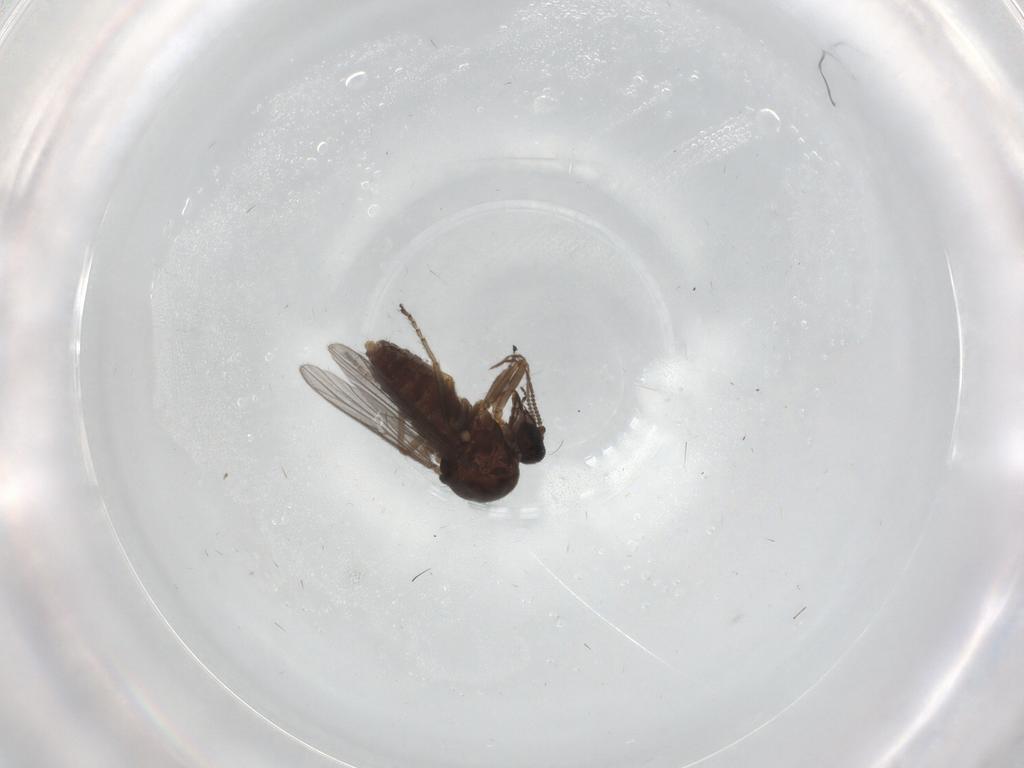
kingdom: Animalia
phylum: Arthropoda
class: Insecta
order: Diptera
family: Ceratopogonidae
